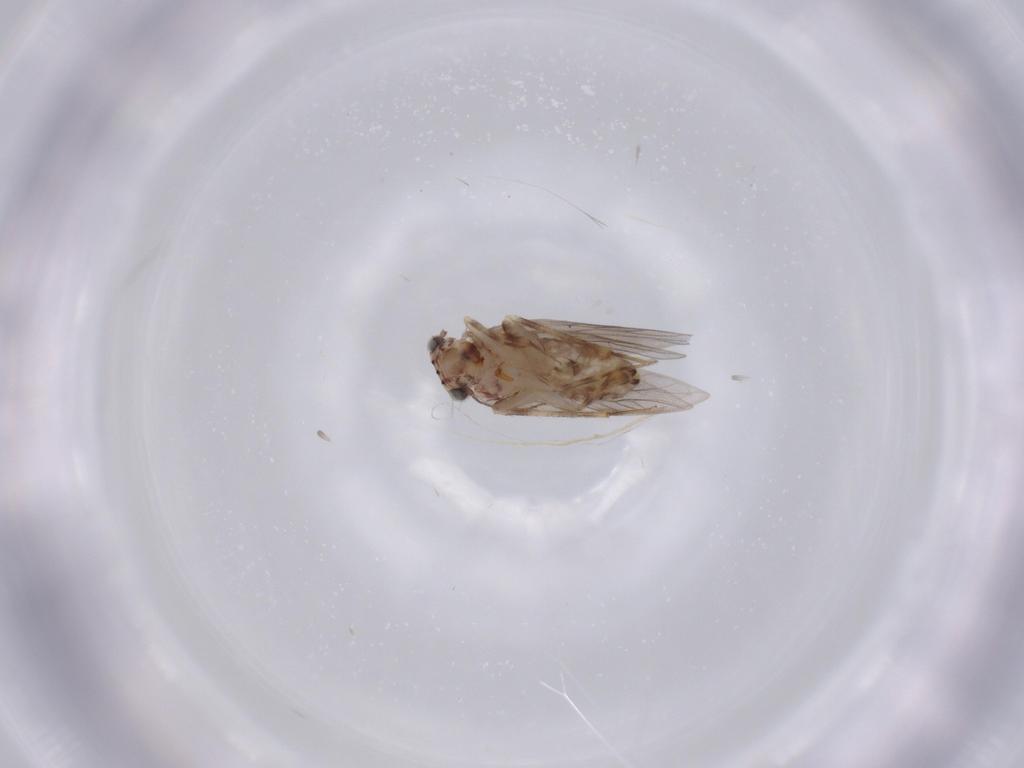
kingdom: Animalia
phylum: Arthropoda
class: Insecta
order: Psocodea
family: Lepidopsocidae
